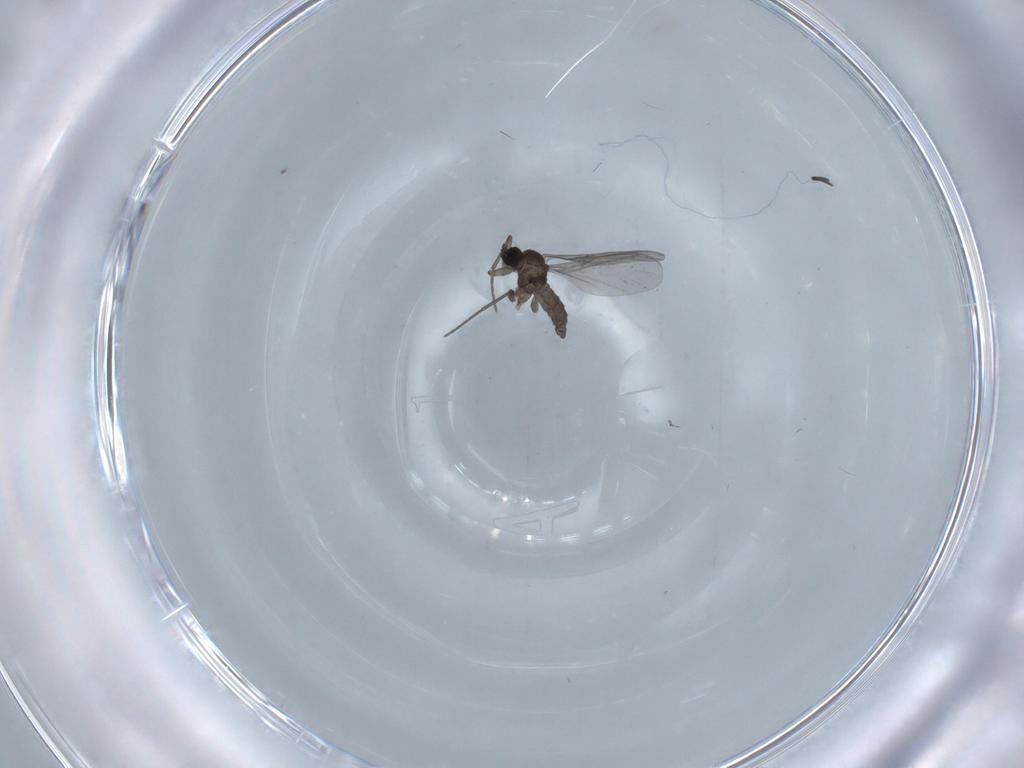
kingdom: Animalia
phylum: Arthropoda
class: Insecta
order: Diptera
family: Sciaridae
